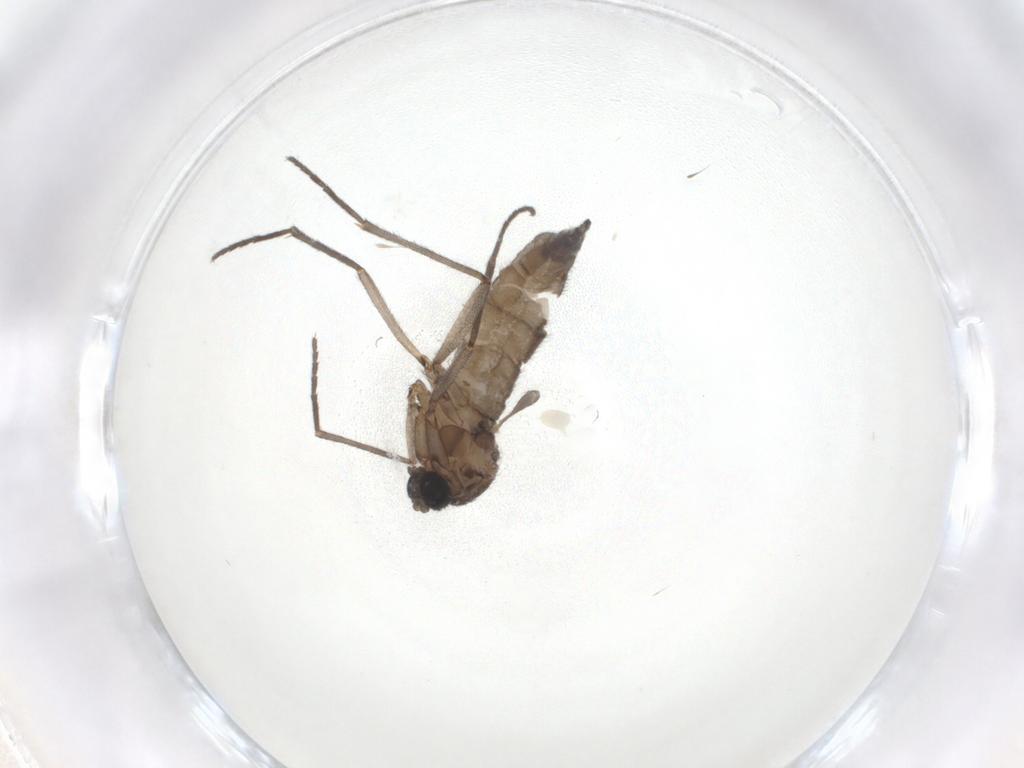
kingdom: Animalia
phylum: Arthropoda
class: Insecta
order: Diptera
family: Sciaridae
